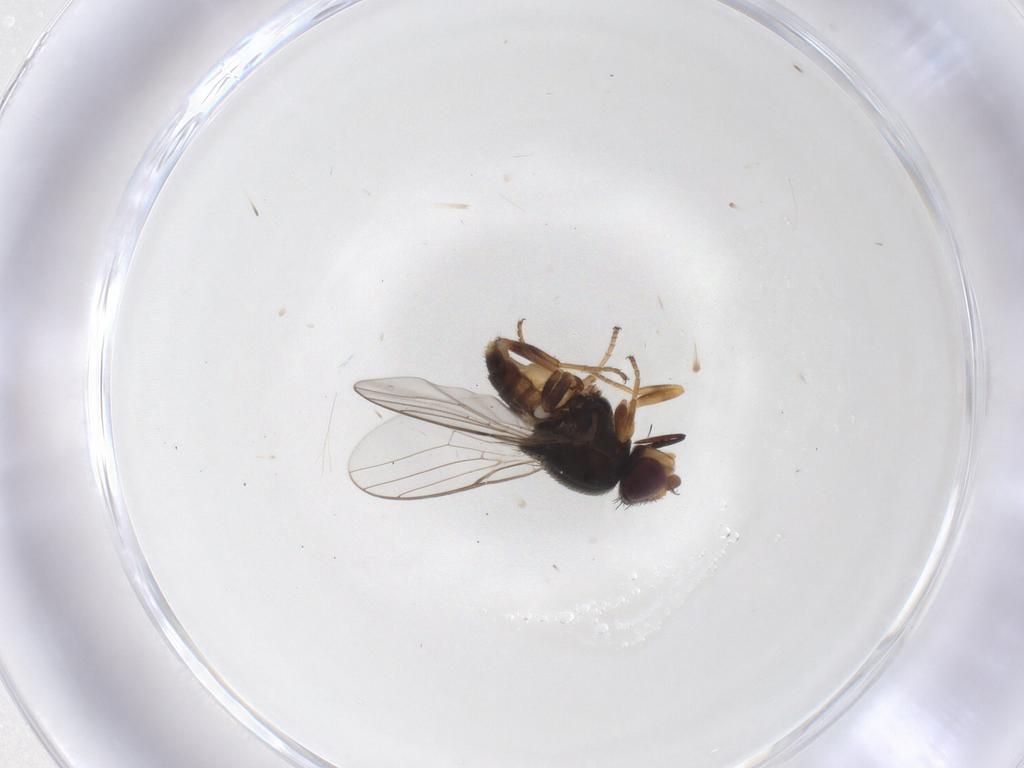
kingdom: Animalia
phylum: Arthropoda
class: Insecta
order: Diptera
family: Chloropidae
